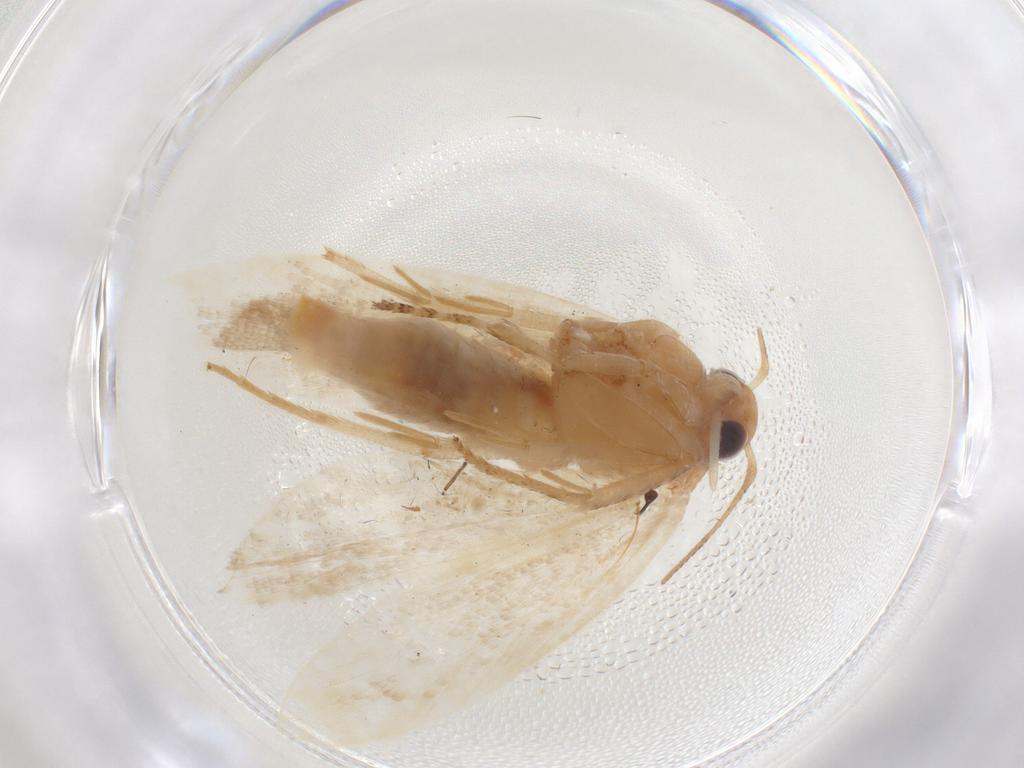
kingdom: Animalia
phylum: Arthropoda
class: Insecta
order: Lepidoptera
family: Gelechiidae
